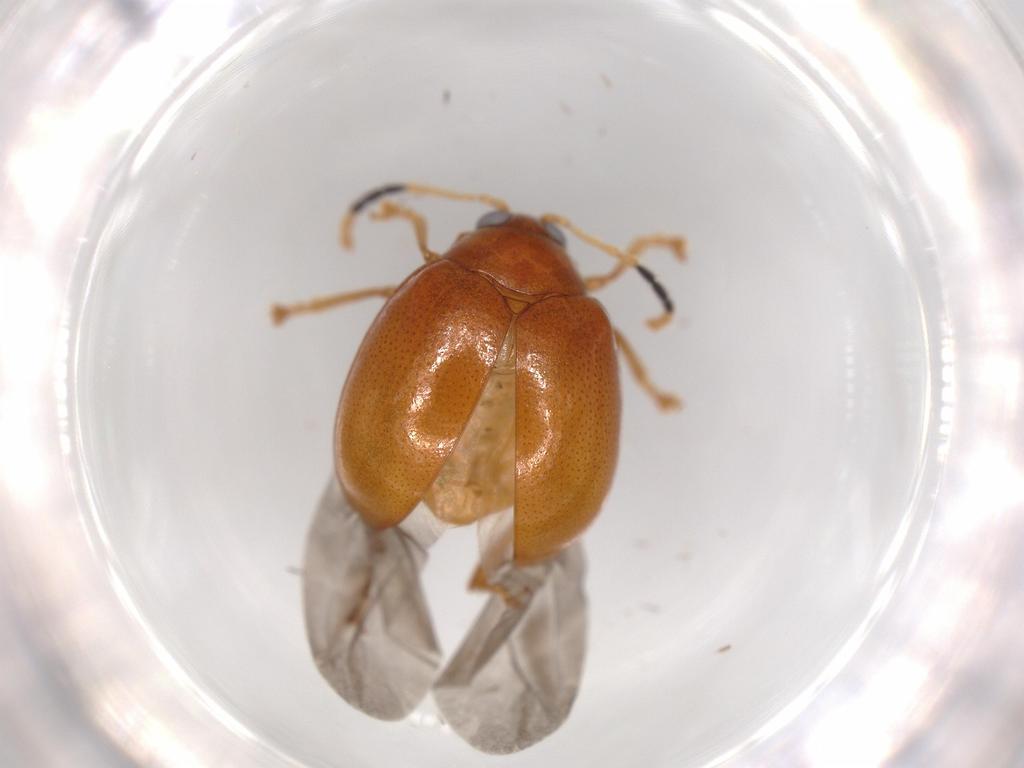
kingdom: Animalia
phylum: Arthropoda
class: Insecta
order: Coleoptera
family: Chrysomelidae
